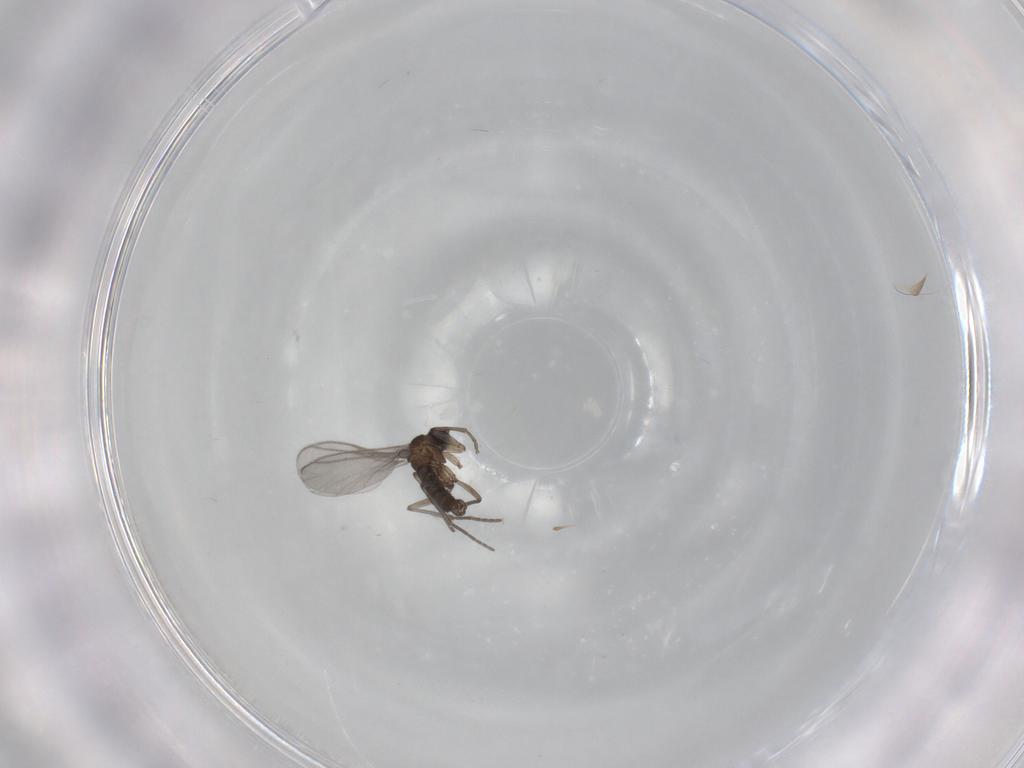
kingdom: Animalia
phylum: Arthropoda
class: Insecta
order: Diptera
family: Sciaridae
